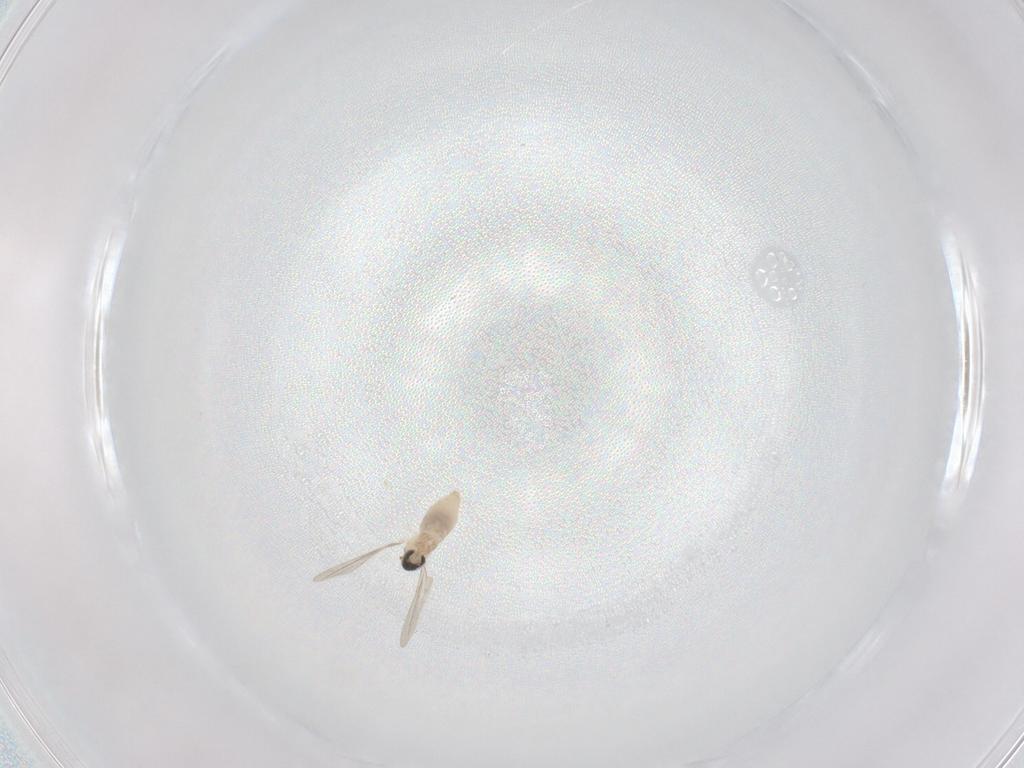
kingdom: Animalia
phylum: Arthropoda
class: Insecta
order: Diptera
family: Cecidomyiidae
